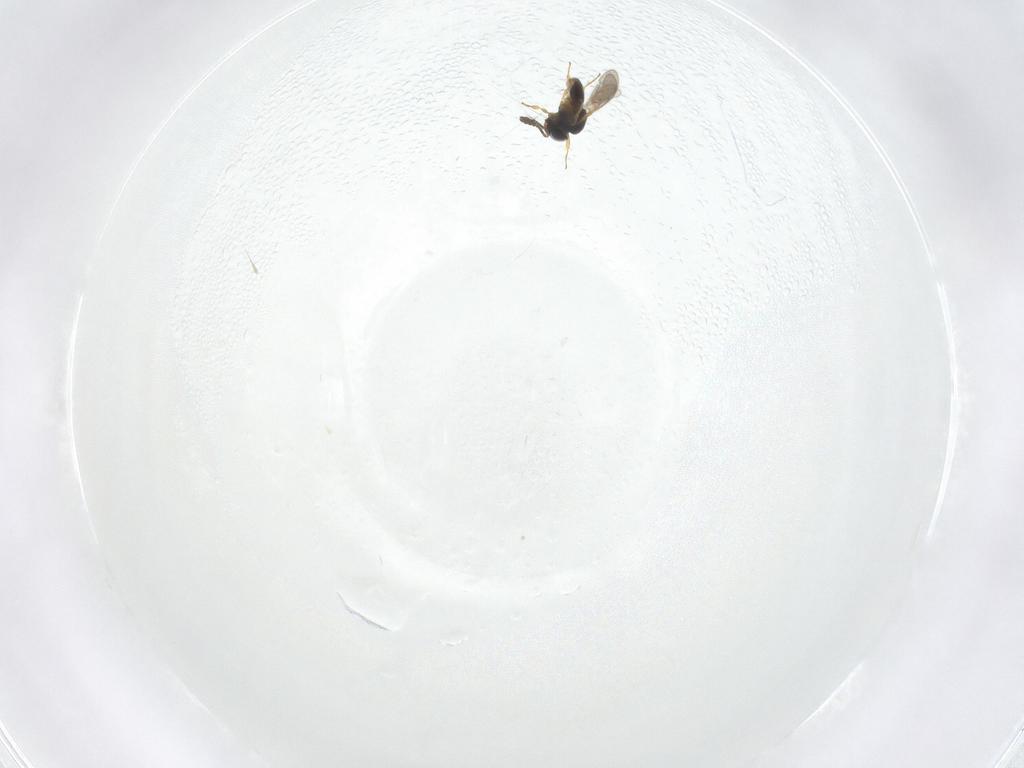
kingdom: Animalia
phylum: Arthropoda
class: Insecta
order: Hymenoptera
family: Scelionidae
